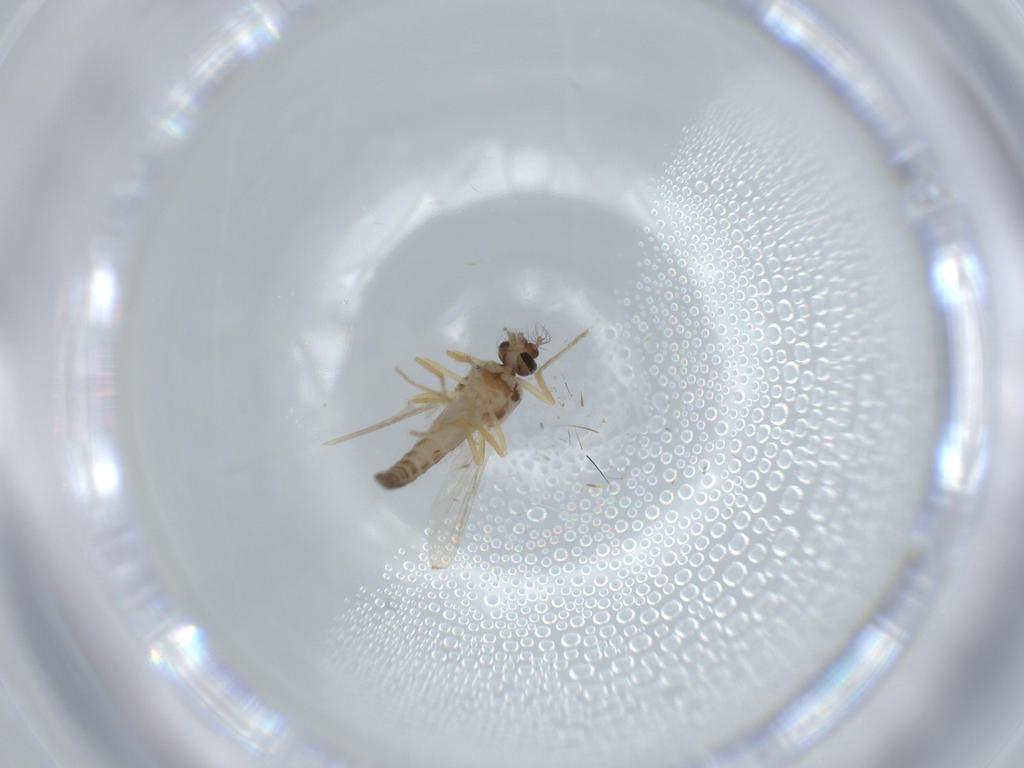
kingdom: Animalia
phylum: Arthropoda
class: Insecta
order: Diptera
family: Ceratopogonidae
